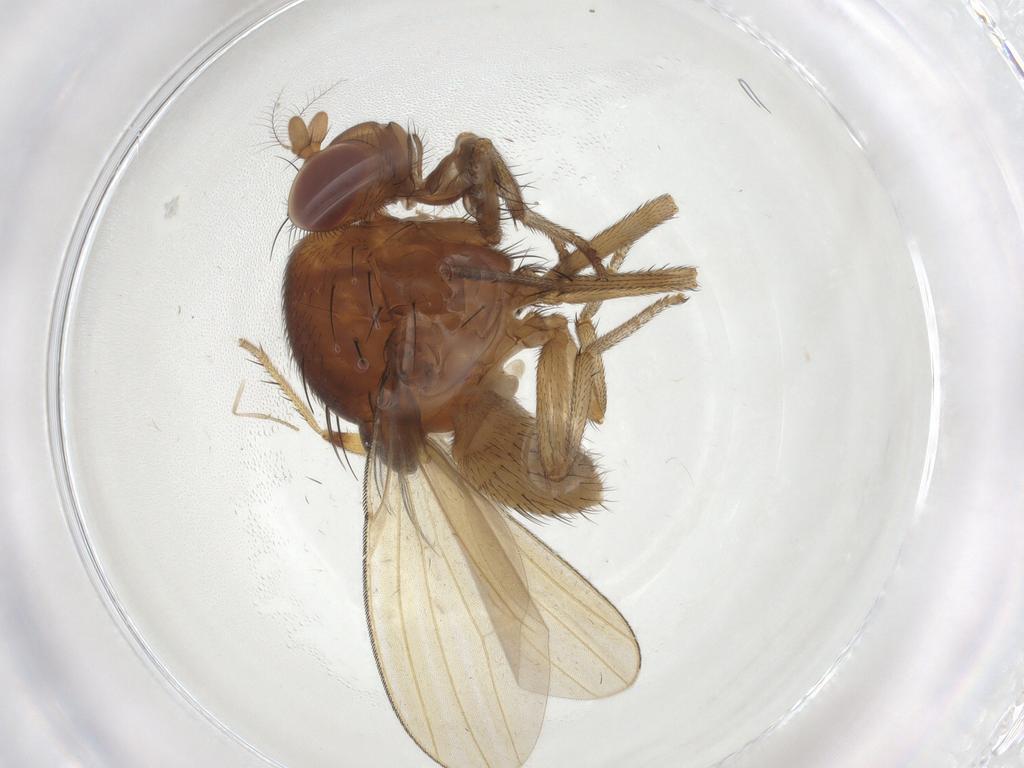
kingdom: Animalia
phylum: Arthropoda
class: Insecta
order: Diptera
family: Lauxaniidae
